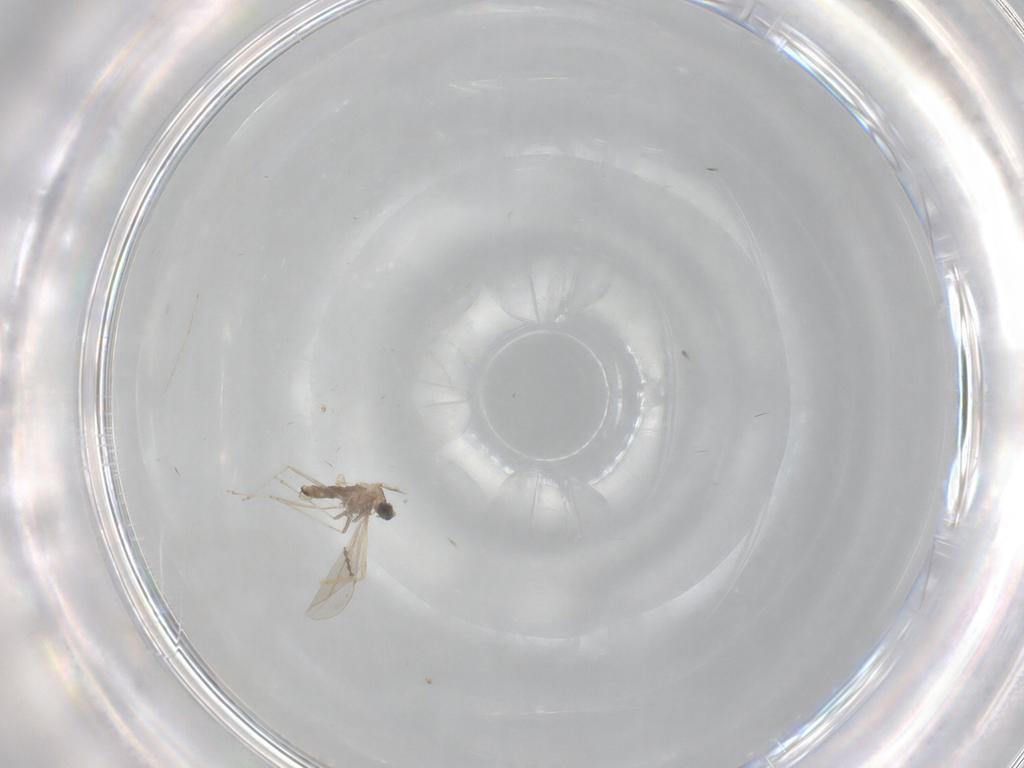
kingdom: Animalia
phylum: Arthropoda
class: Insecta
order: Diptera
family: Cecidomyiidae
